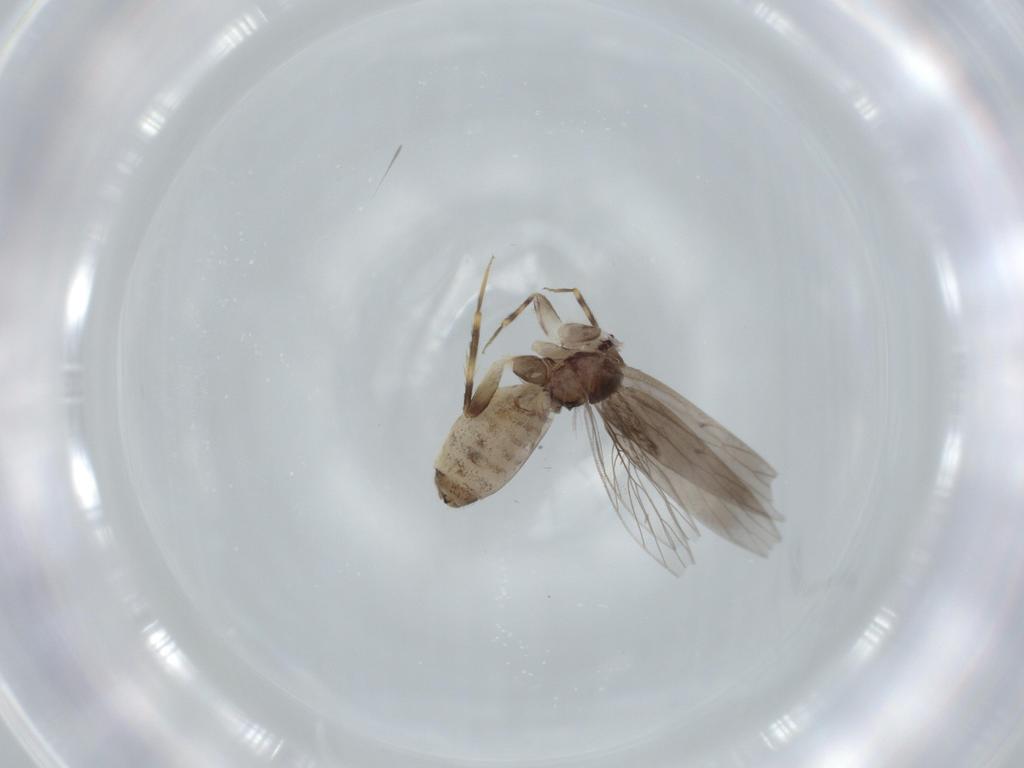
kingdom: Animalia
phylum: Arthropoda
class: Insecta
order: Psocodea
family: Lepidopsocidae
